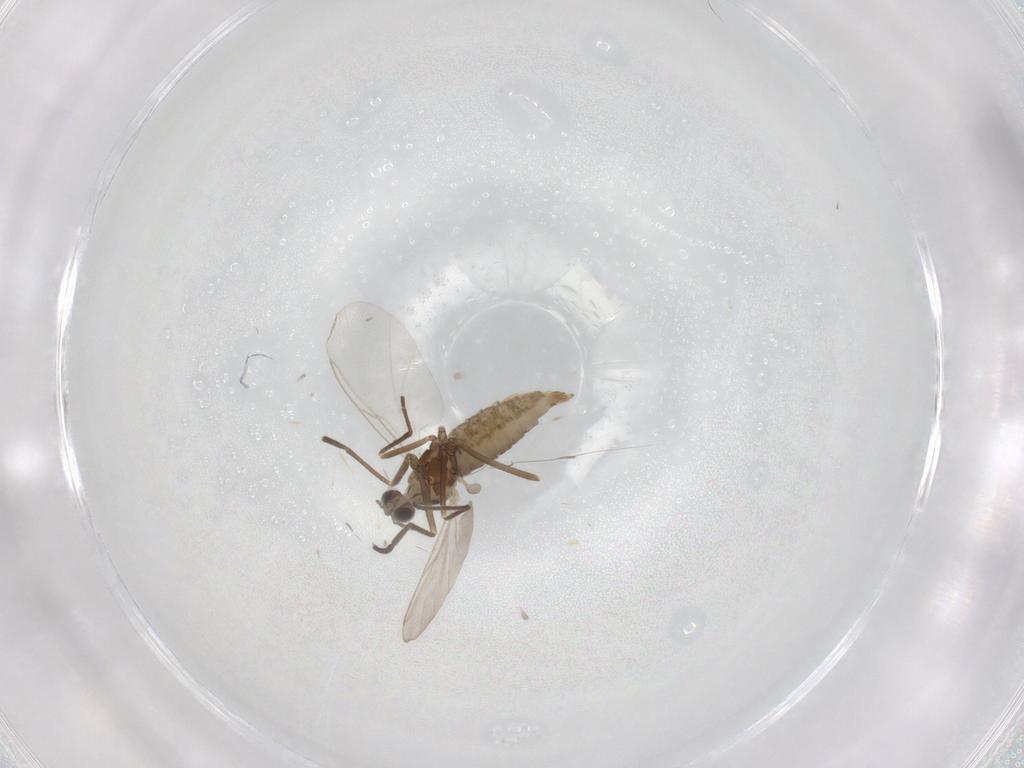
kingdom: Animalia
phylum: Arthropoda
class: Insecta
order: Diptera
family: Cecidomyiidae
